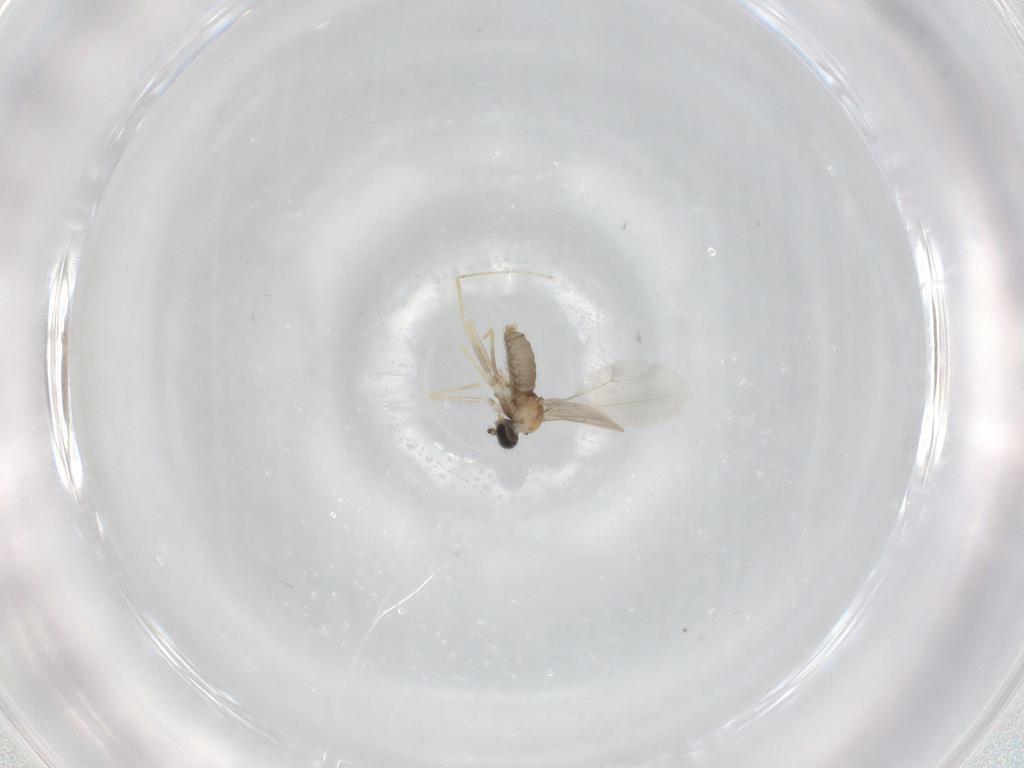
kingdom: Animalia
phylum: Arthropoda
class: Insecta
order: Diptera
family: Cecidomyiidae
